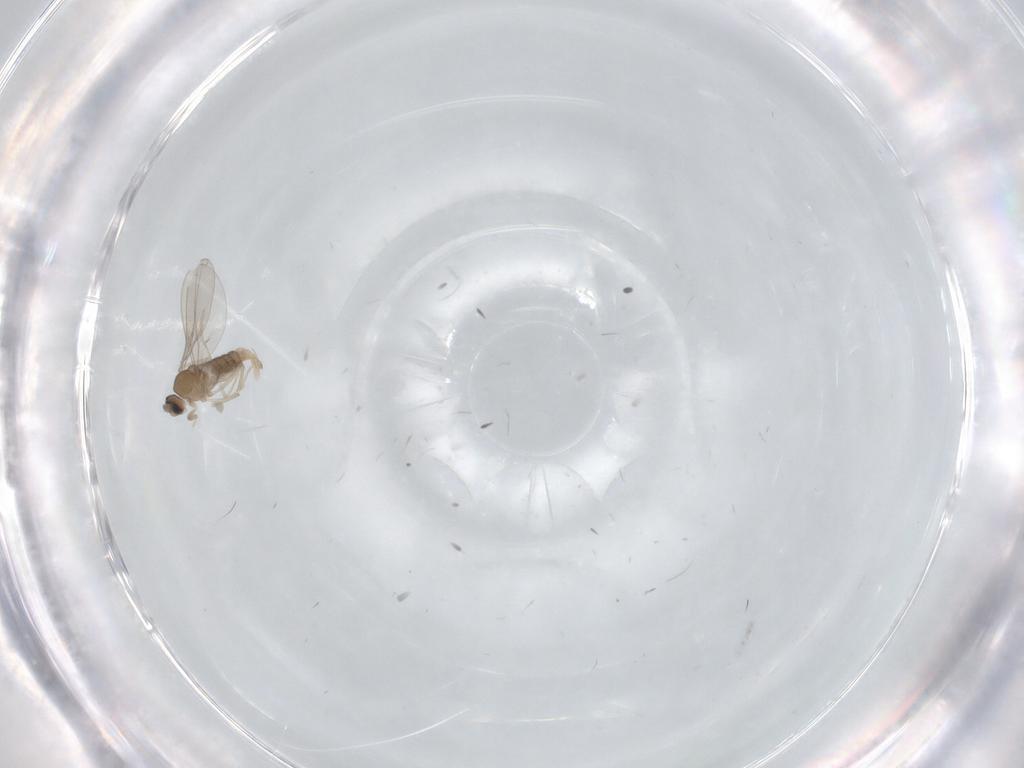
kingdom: Animalia
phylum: Arthropoda
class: Insecta
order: Diptera
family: Cecidomyiidae
